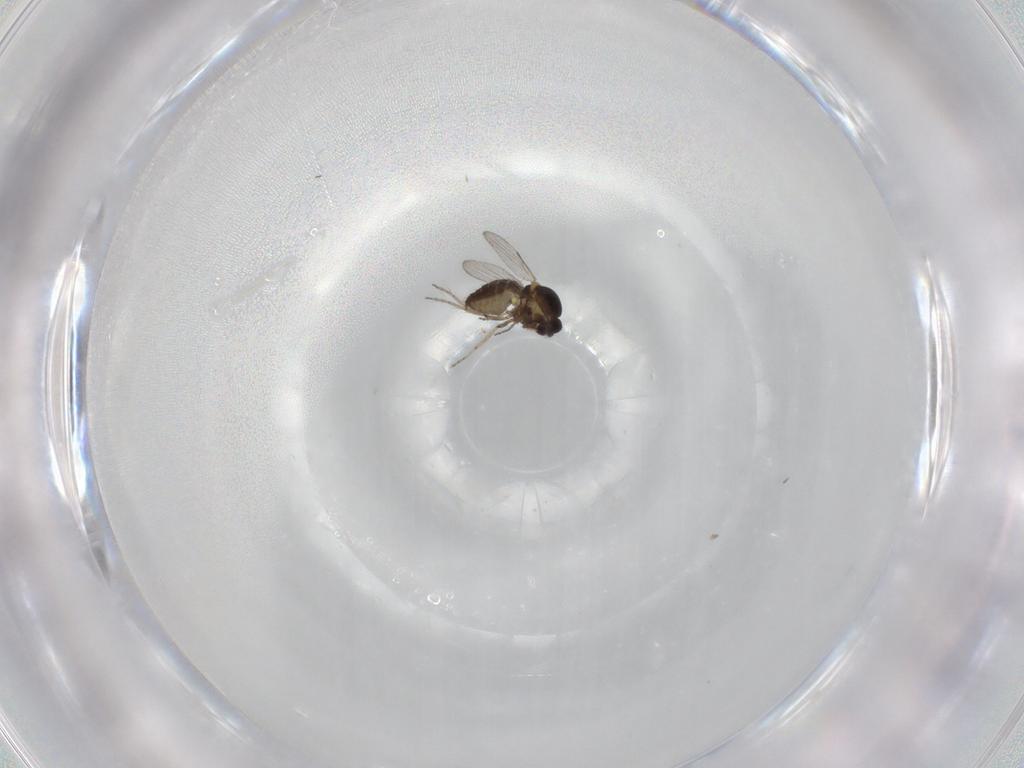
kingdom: Animalia
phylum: Arthropoda
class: Insecta
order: Diptera
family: Ceratopogonidae
